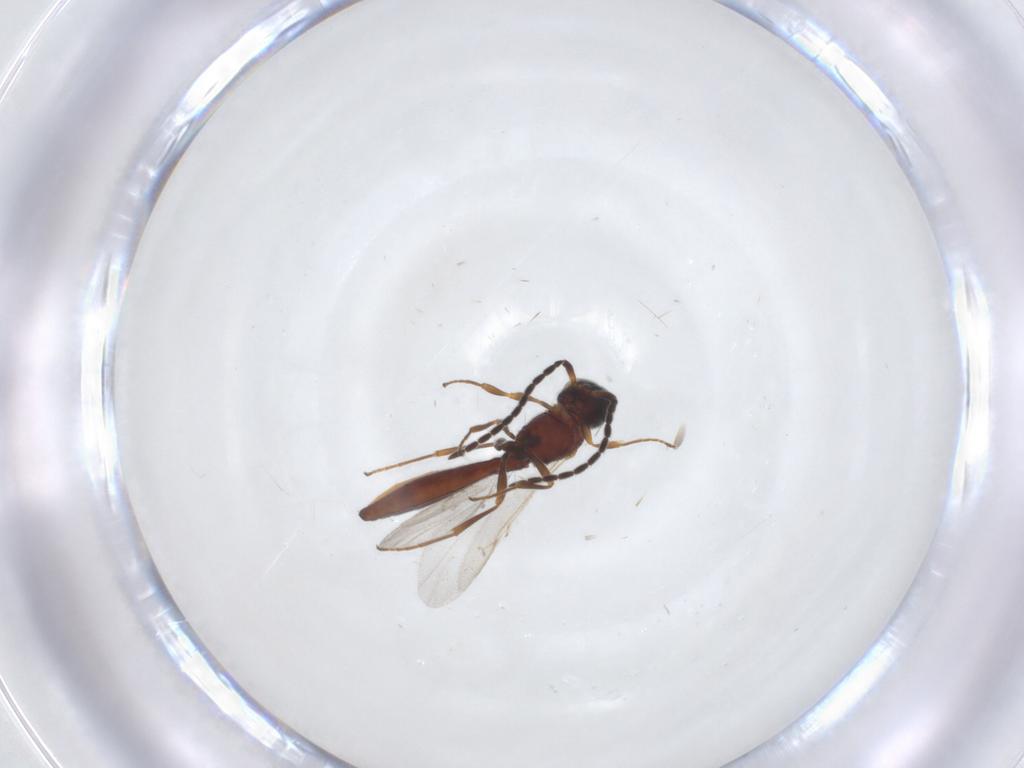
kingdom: Animalia
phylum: Arthropoda
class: Insecta
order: Hymenoptera
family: Scelionidae
